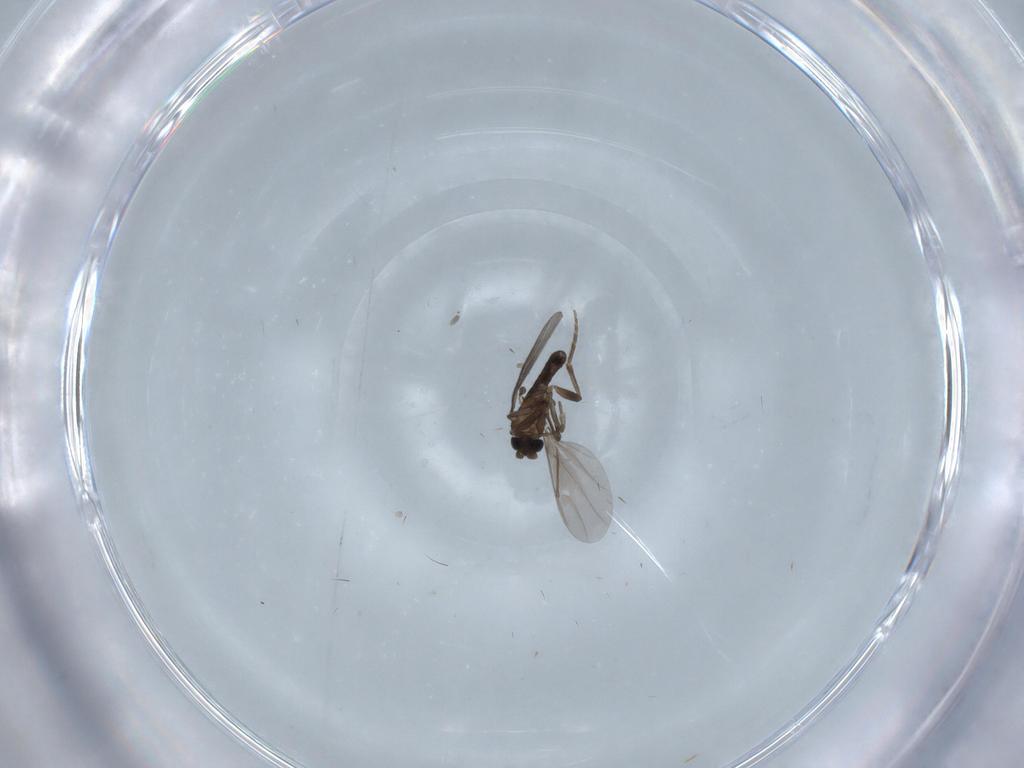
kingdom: Animalia
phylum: Arthropoda
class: Insecta
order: Diptera
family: Phoridae
